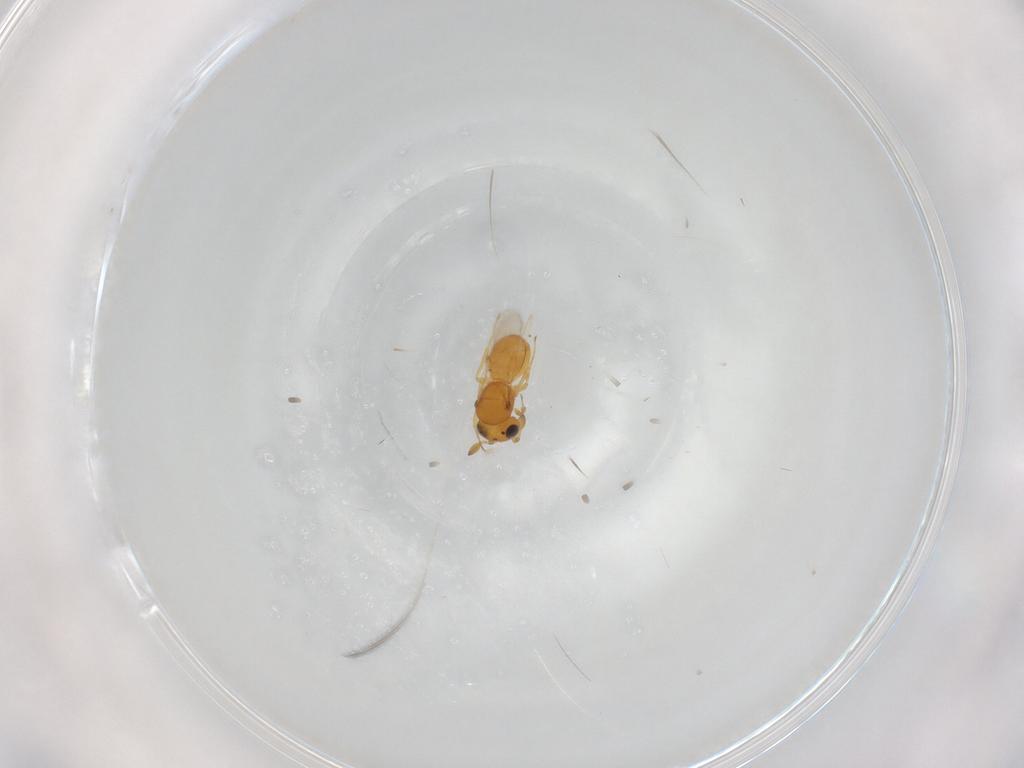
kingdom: Animalia
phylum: Arthropoda
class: Insecta
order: Hymenoptera
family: Scelionidae
